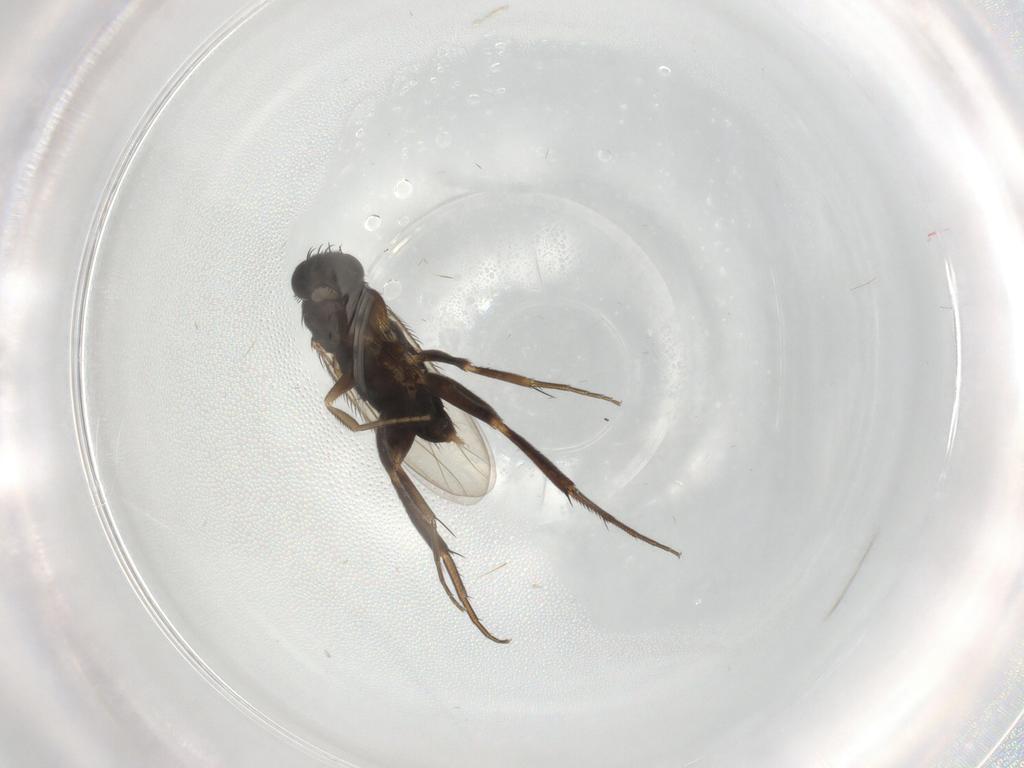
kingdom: Animalia
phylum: Arthropoda
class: Insecta
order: Diptera
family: Phoridae
